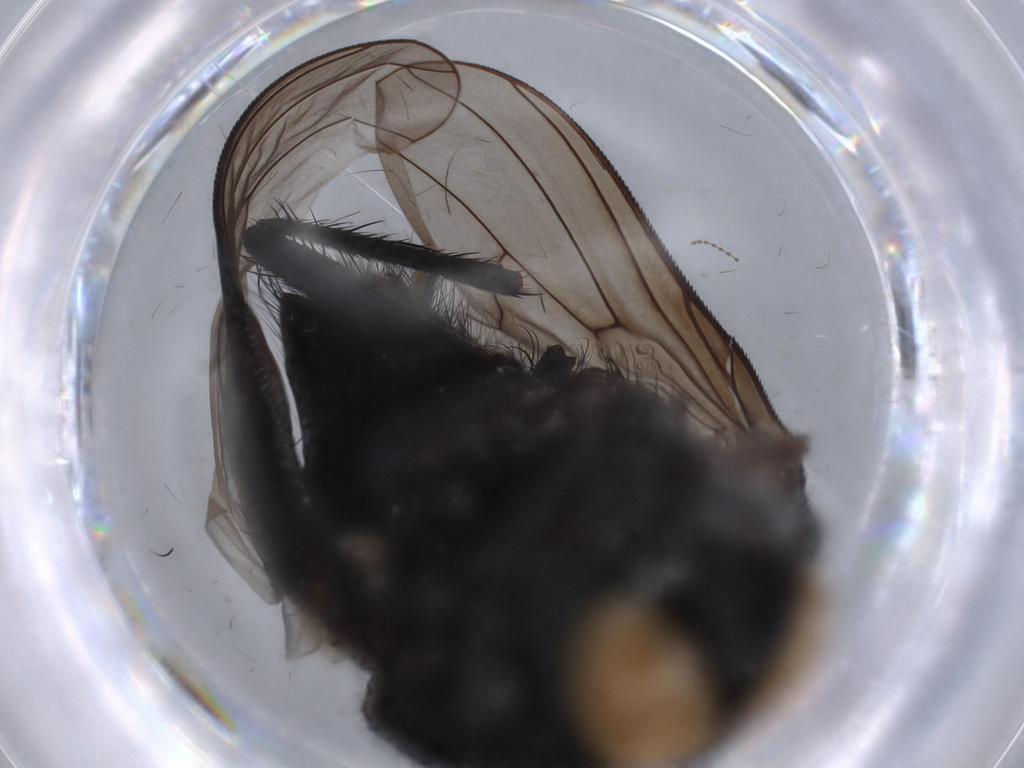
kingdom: Animalia
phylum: Arthropoda
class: Insecta
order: Diptera
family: Muscidae
